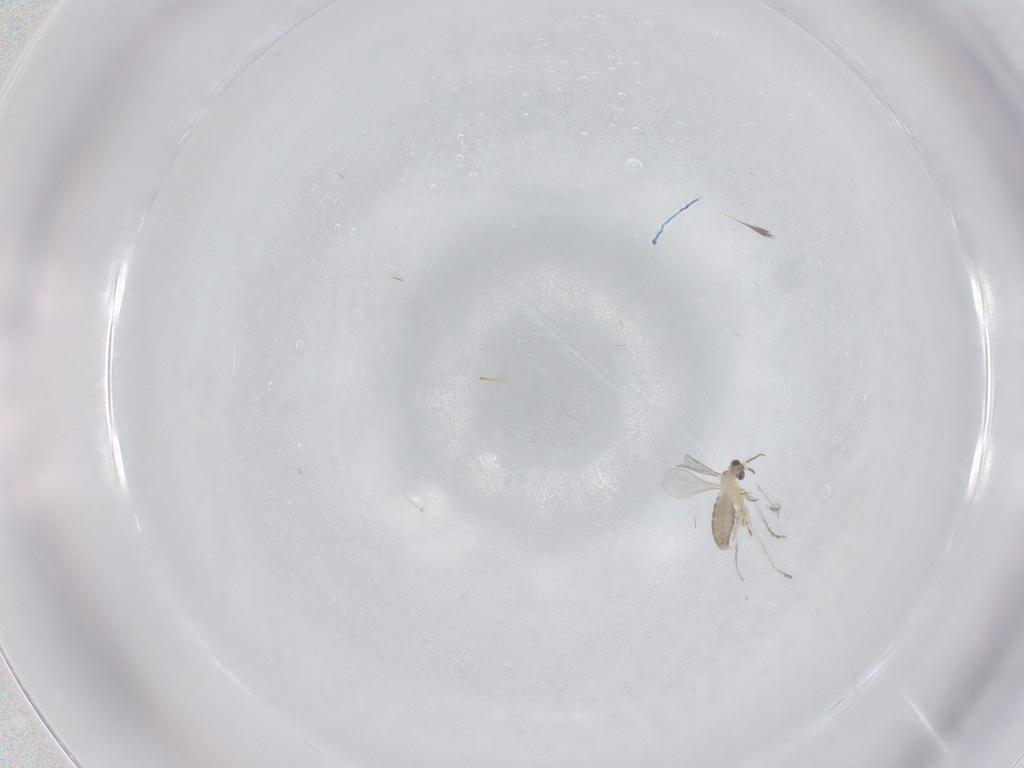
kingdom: Animalia
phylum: Arthropoda
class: Insecta
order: Diptera
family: Cecidomyiidae
